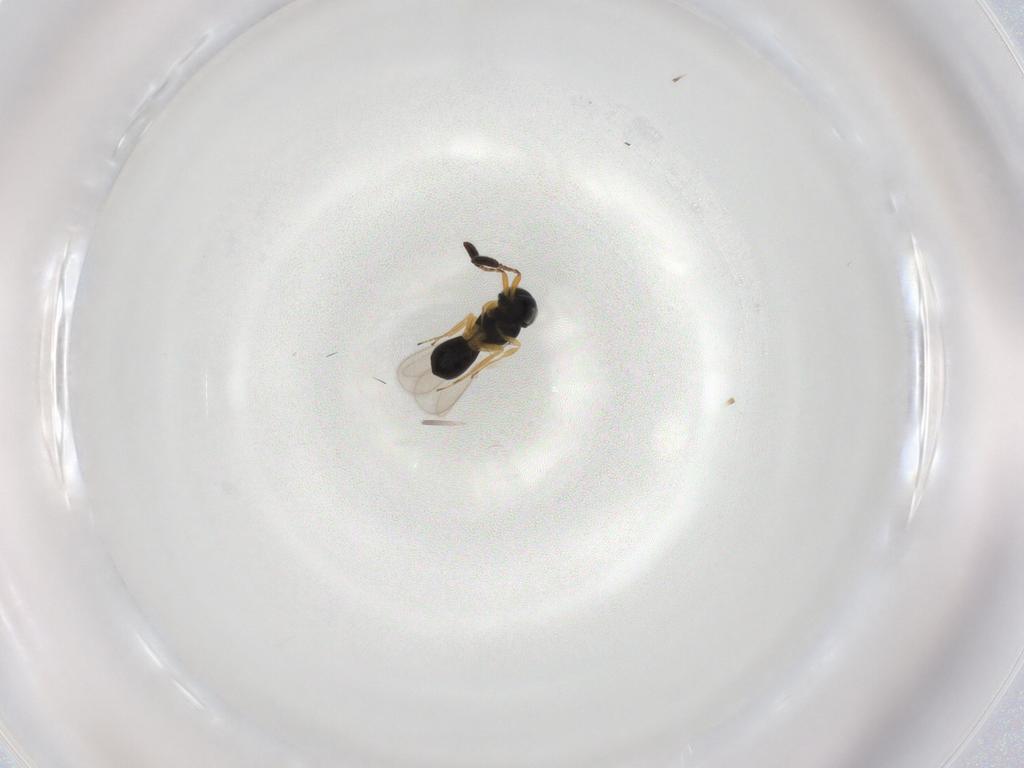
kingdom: Animalia
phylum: Arthropoda
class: Insecta
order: Hymenoptera
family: Scelionidae
